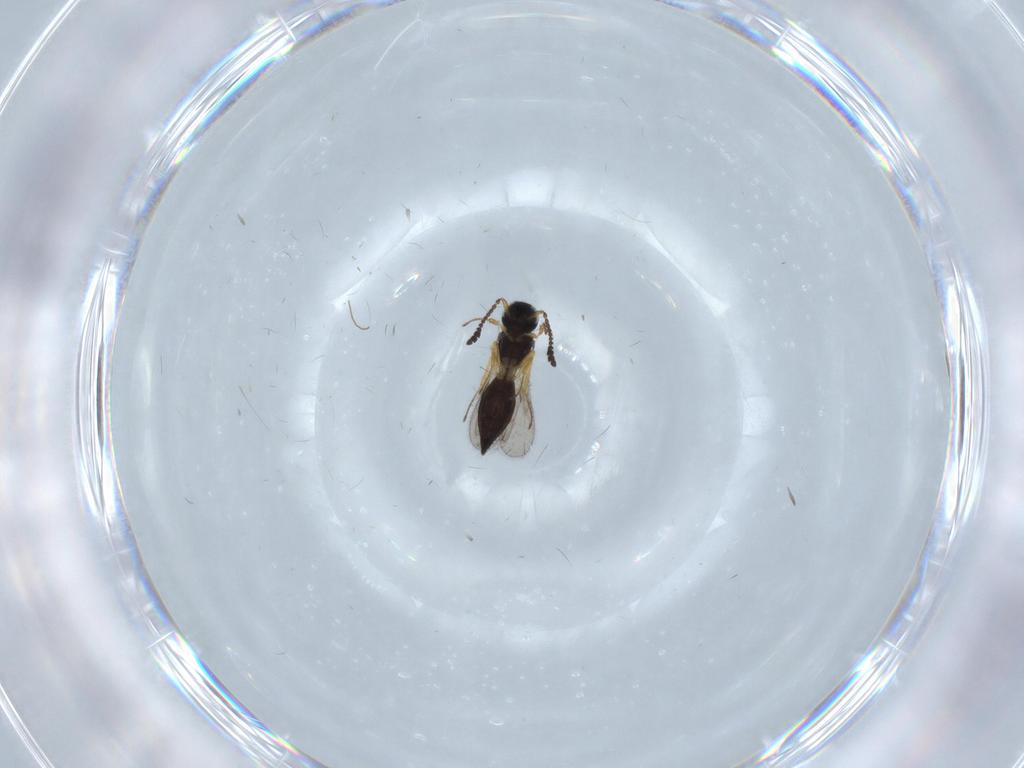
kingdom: Animalia
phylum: Arthropoda
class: Insecta
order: Hymenoptera
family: Scelionidae
